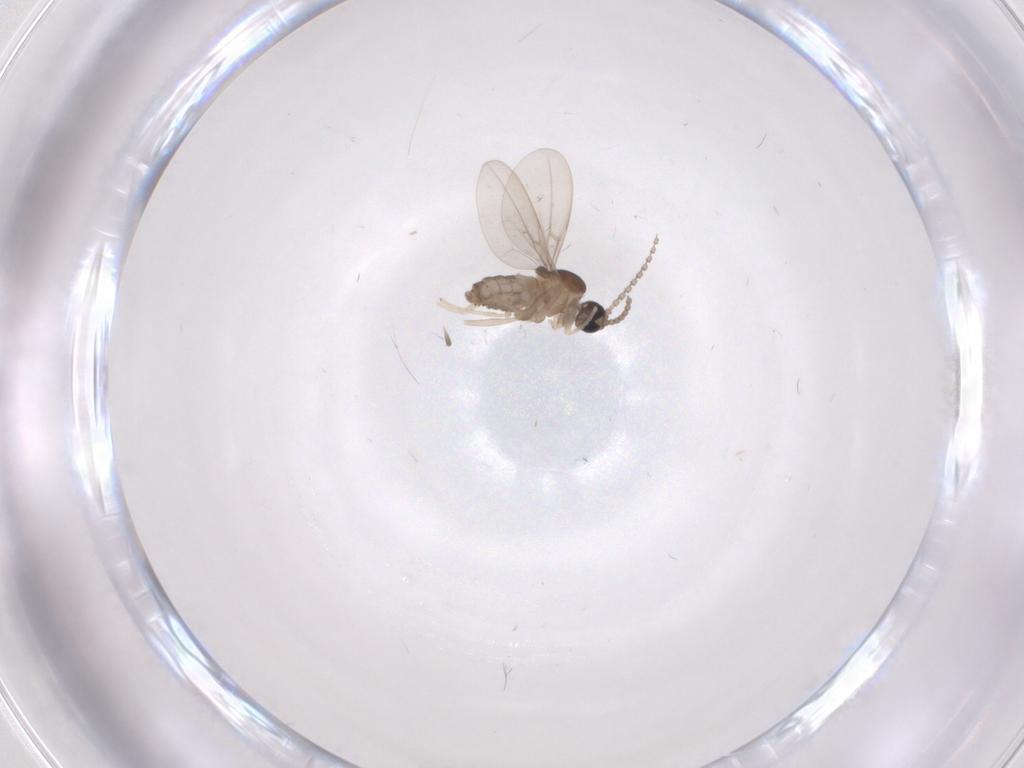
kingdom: Animalia
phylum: Arthropoda
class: Insecta
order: Diptera
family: Cecidomyiidae
